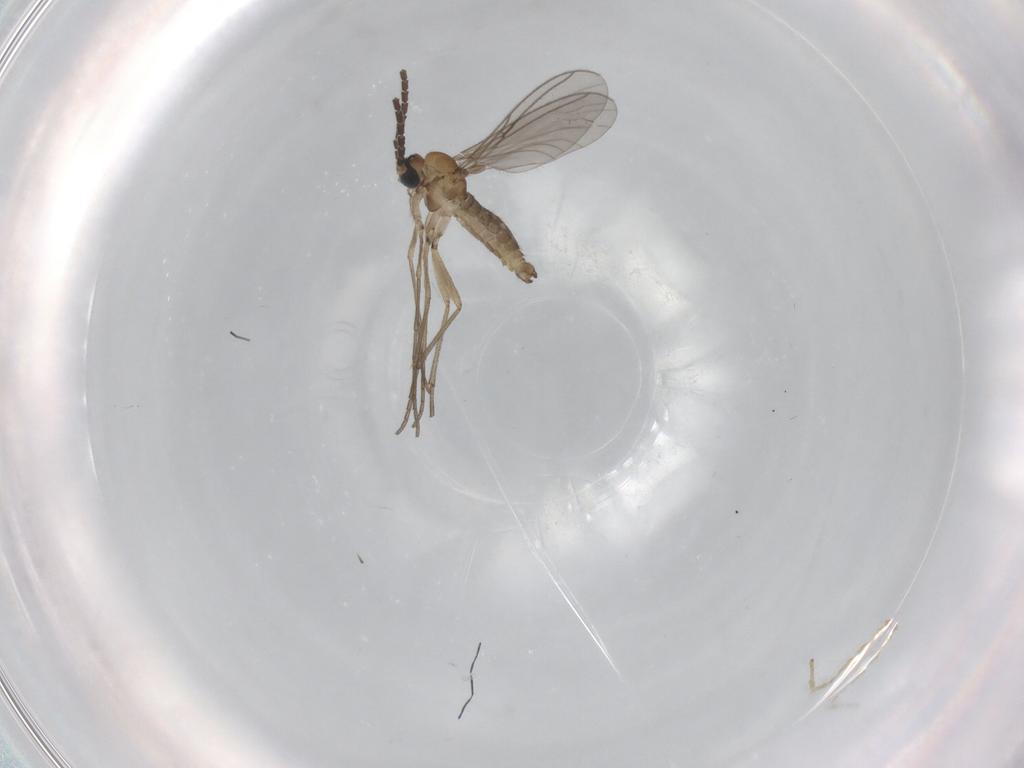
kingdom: Animalia
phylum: Arthropoda
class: Insecta
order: Diptera
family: Sciaridae
